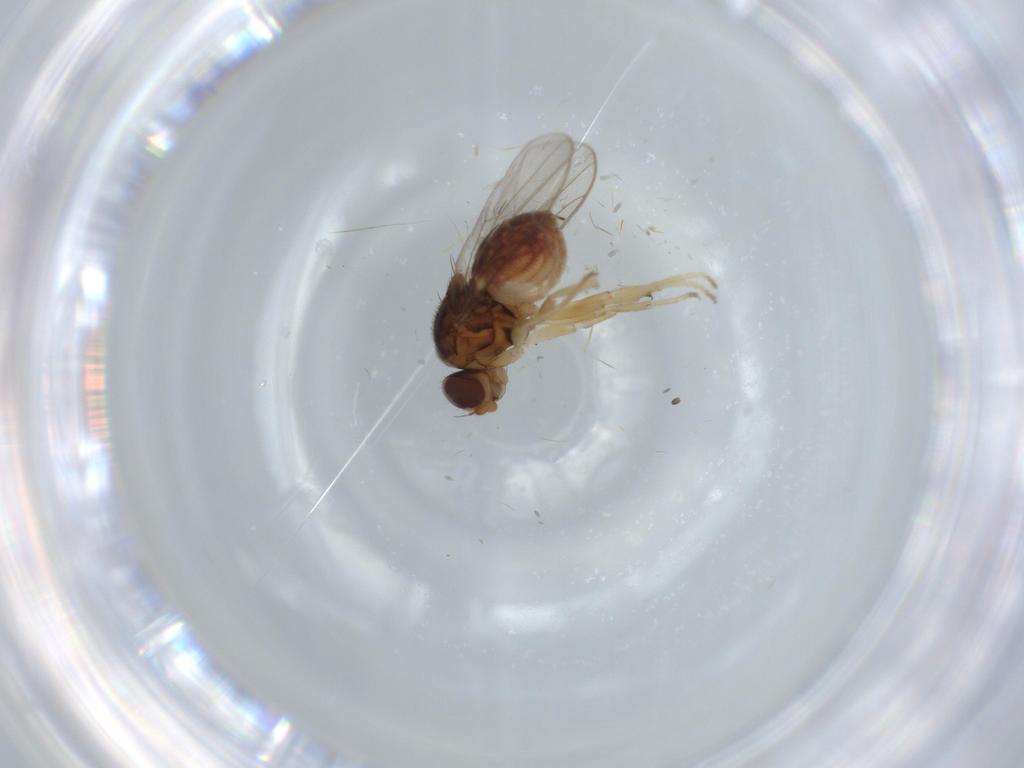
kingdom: Animalia
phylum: Arthropoda
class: Insecta
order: Diptera
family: Chloropidae
